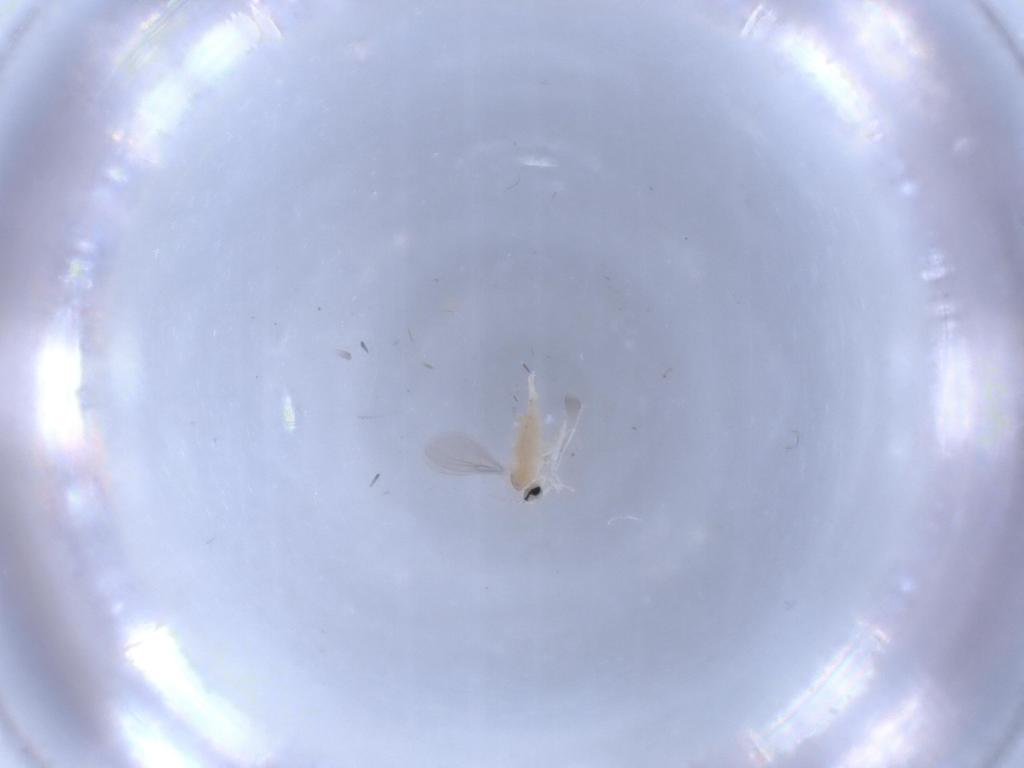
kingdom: Animalia
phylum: Arthropoda
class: Insecta
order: Diptera
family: Cecidomyiidae
